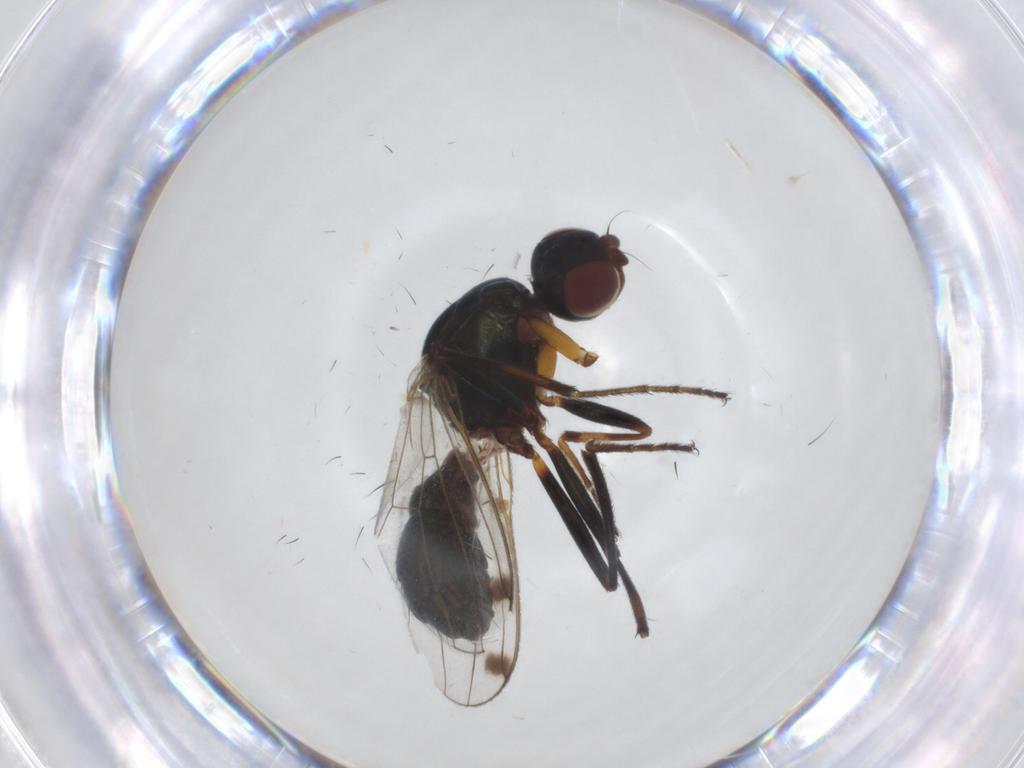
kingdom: Animalia
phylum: Arthropoda
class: Insecta
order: Diptera
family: Sepsidae
